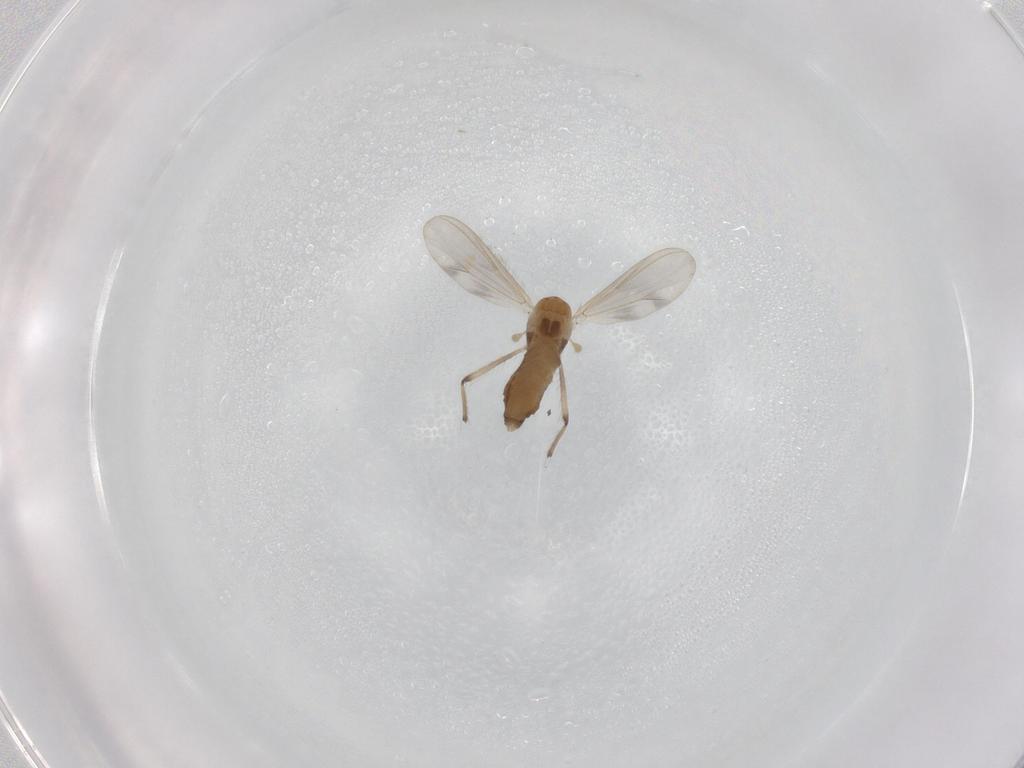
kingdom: Animalia
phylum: Arthropoda
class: Insecta
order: Diptera
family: Chironomidae
